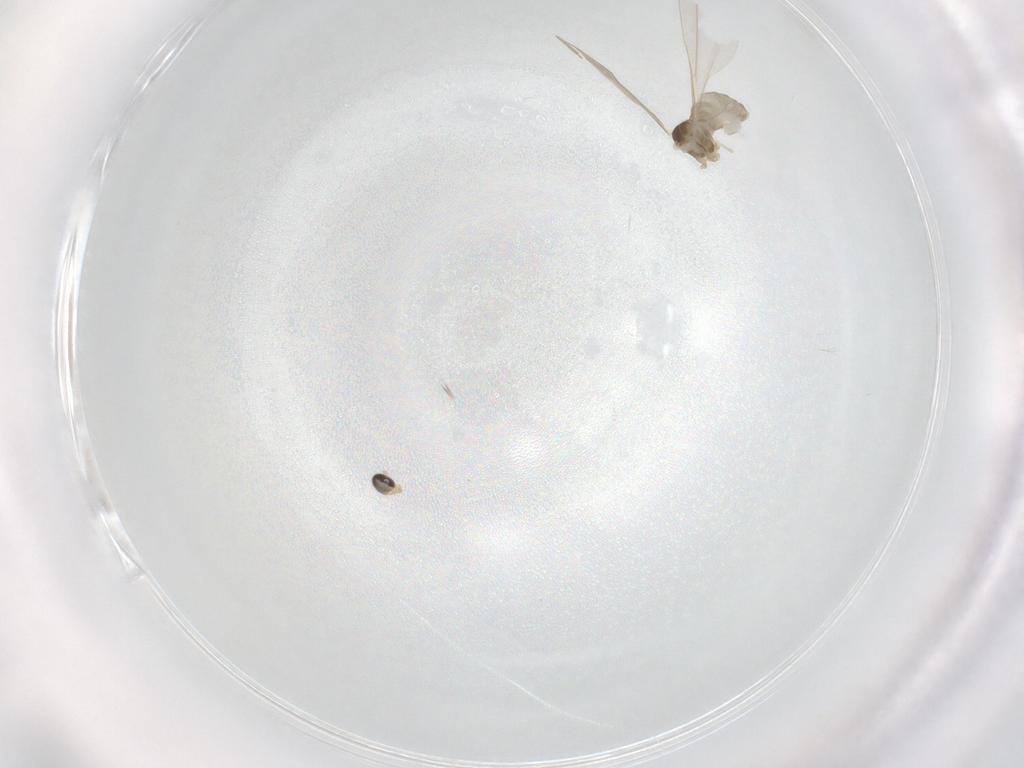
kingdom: Animalia
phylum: Arthropoda
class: Insecta
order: Diptera
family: Cecidomyiidae
